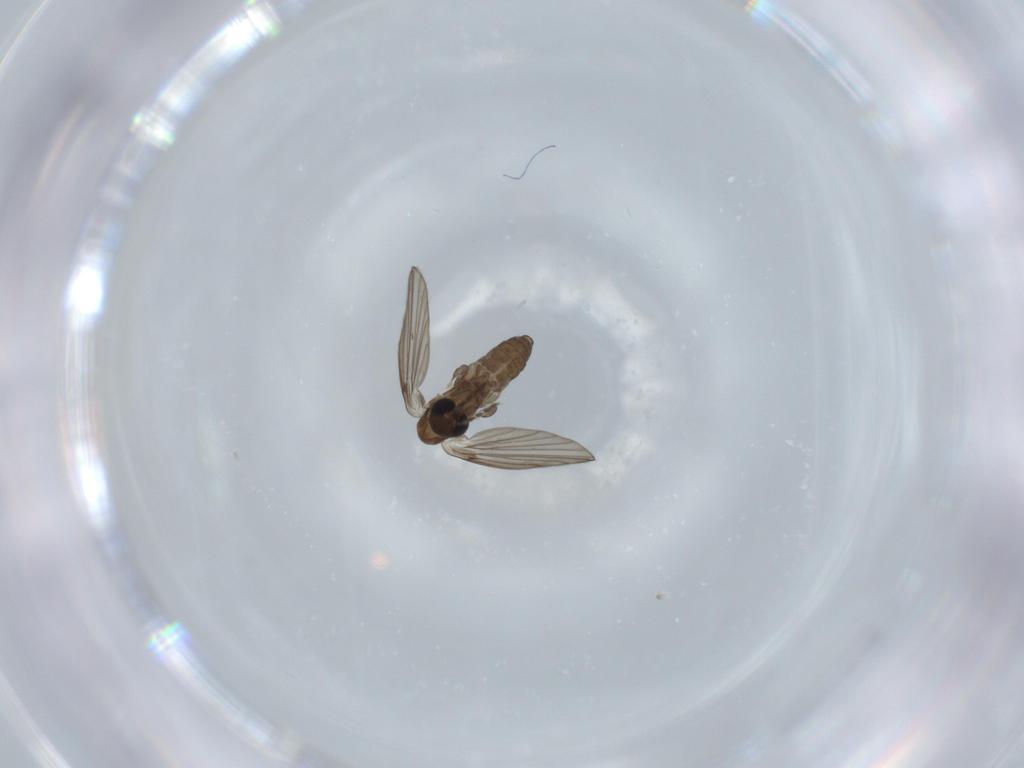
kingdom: Animalia
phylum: Arthropoda
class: Insecta
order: Diptera
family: Psychodidae
